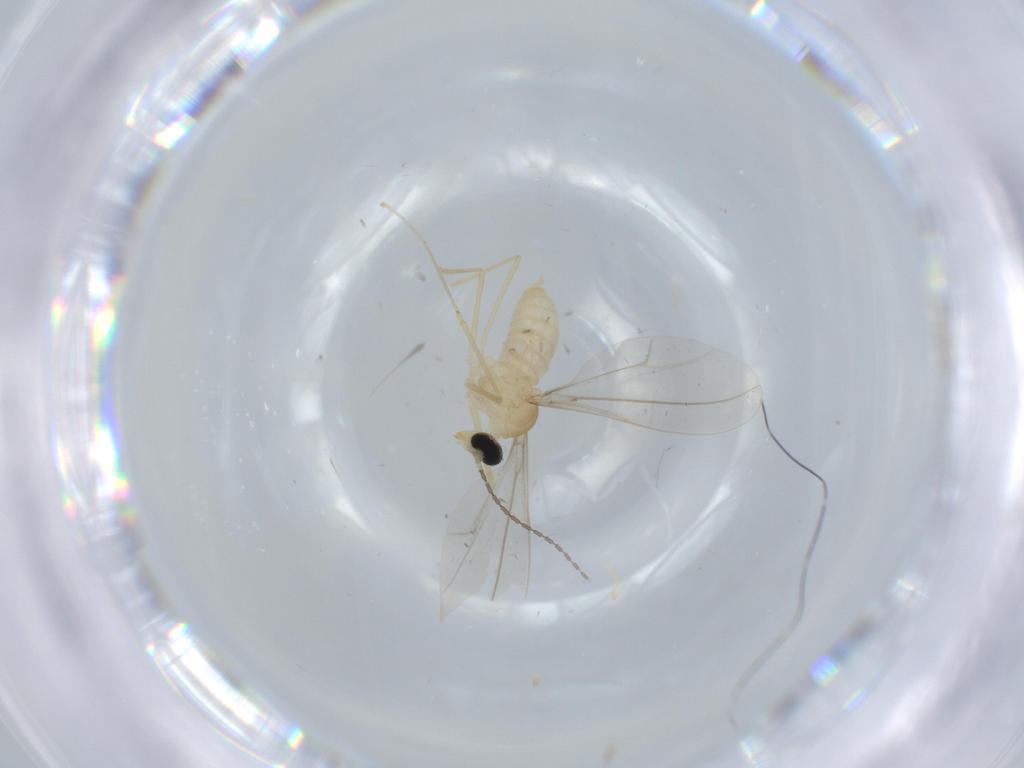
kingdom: Animalia
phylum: Arthropoda
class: Insecta
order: Diptera
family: Cecidomyiidae
